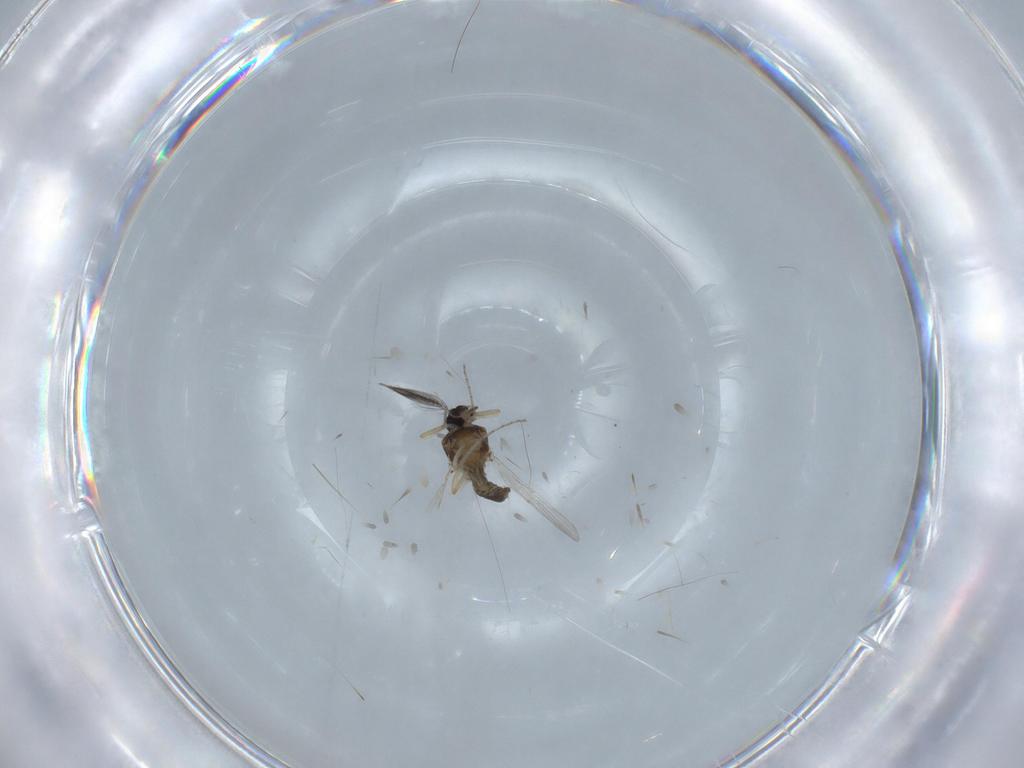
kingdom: Animalia
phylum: Arthropoda
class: Insecta
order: Diptera
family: Ceratopogonidae
